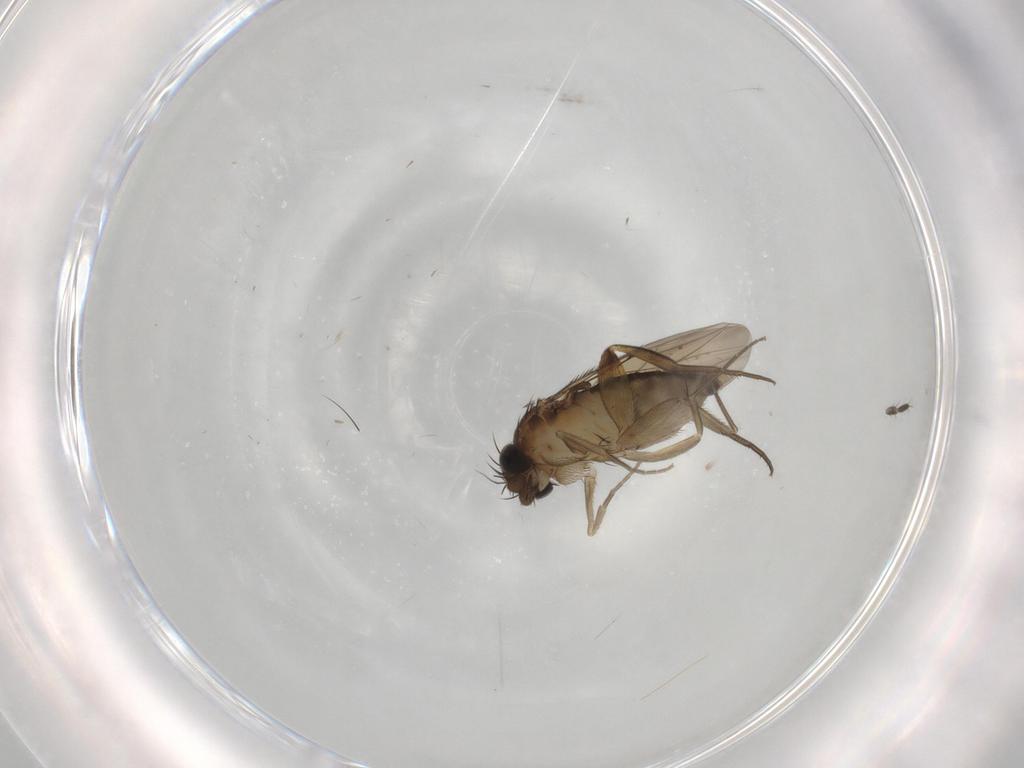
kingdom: Animalia
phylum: Arthropoda
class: Insecta
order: Diptera
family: Phoridae
